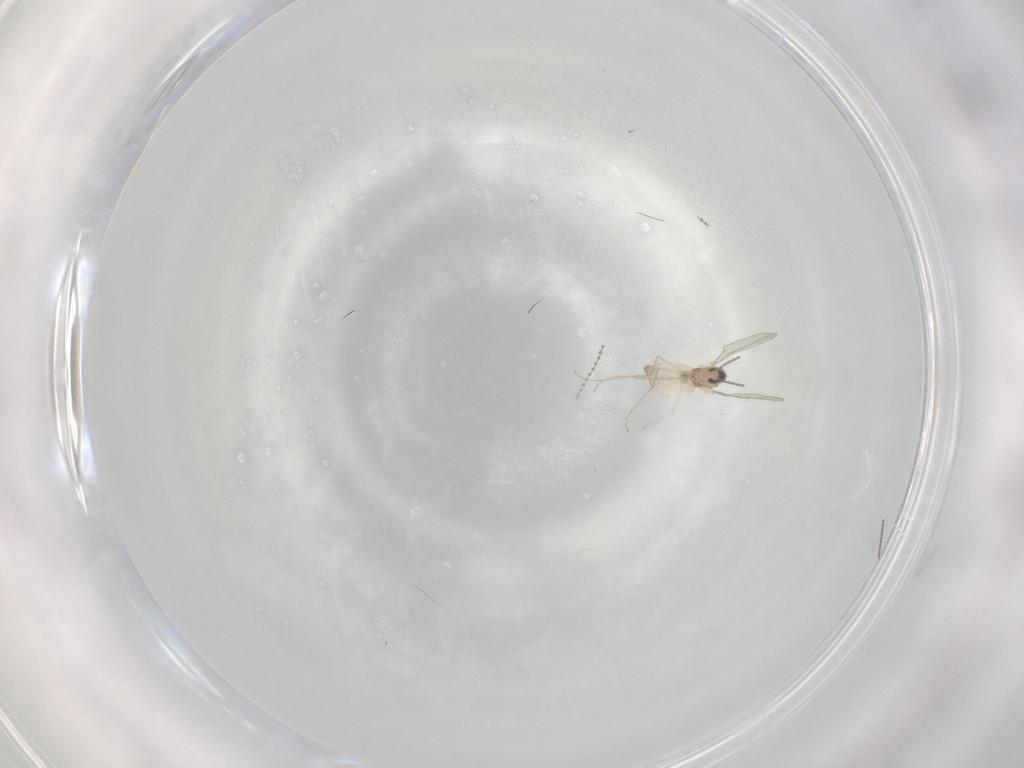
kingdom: Animalia
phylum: Arthropoda
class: Insecta
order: Diptera
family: Cecidomyiidae
